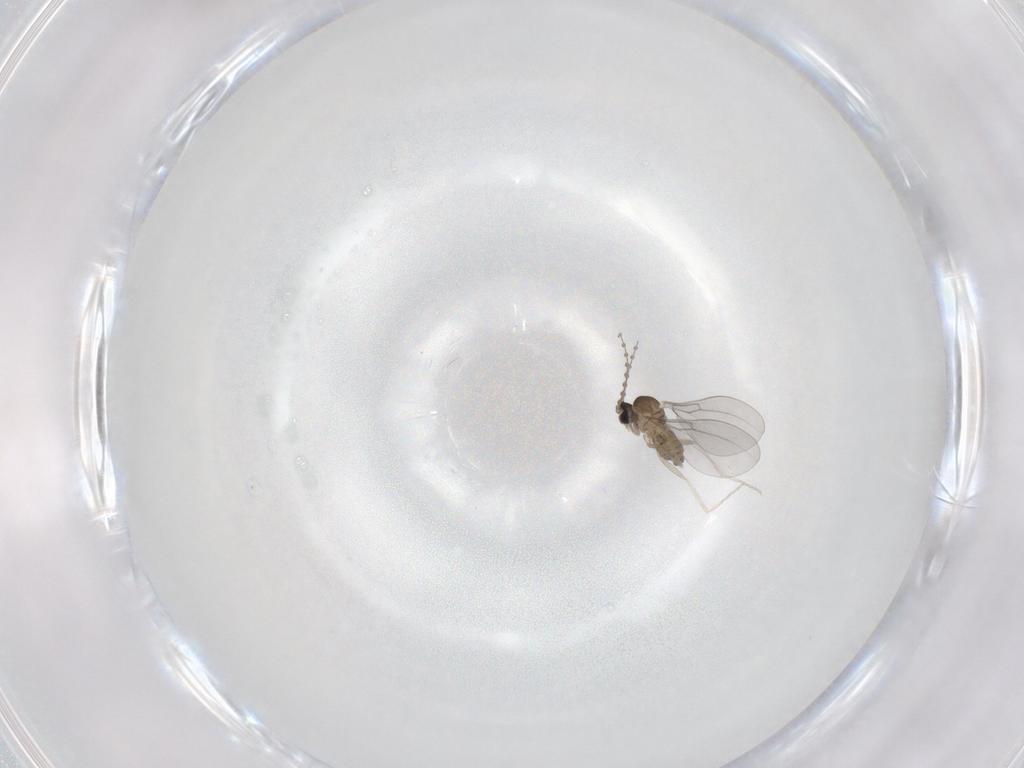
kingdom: Animalia
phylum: Arthropoda
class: Insecta
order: Diptera
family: Cecidomyiidae
